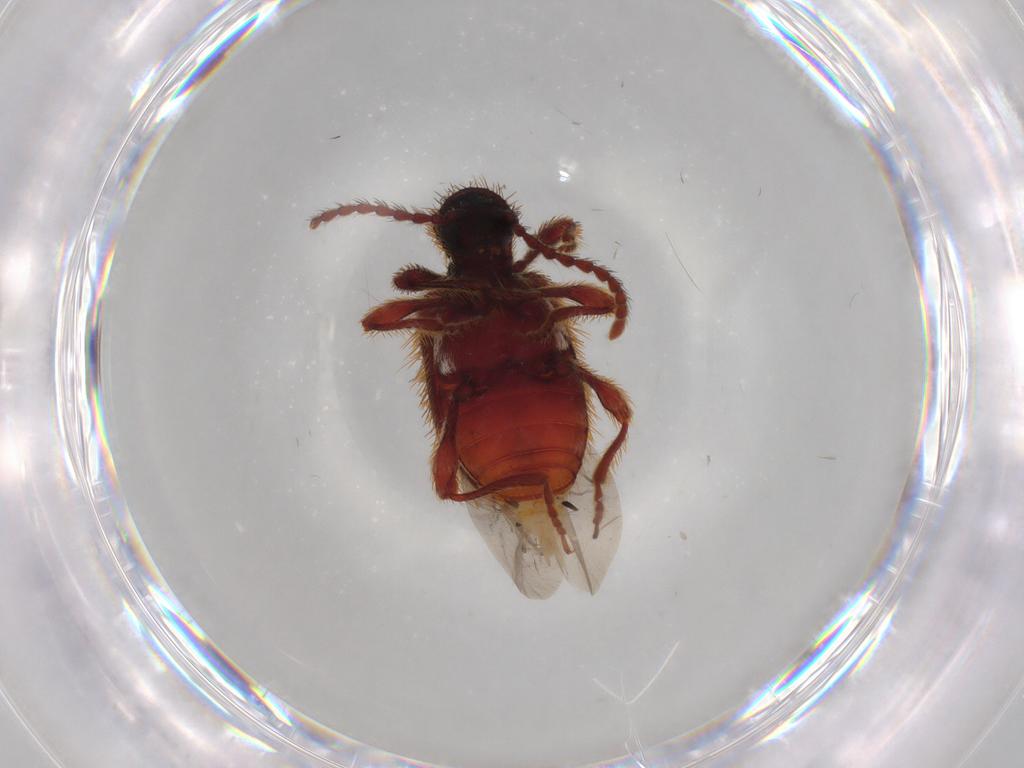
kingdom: Animalia
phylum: Arthropoda
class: Insecta
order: Coleoptera
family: Ptinidae
